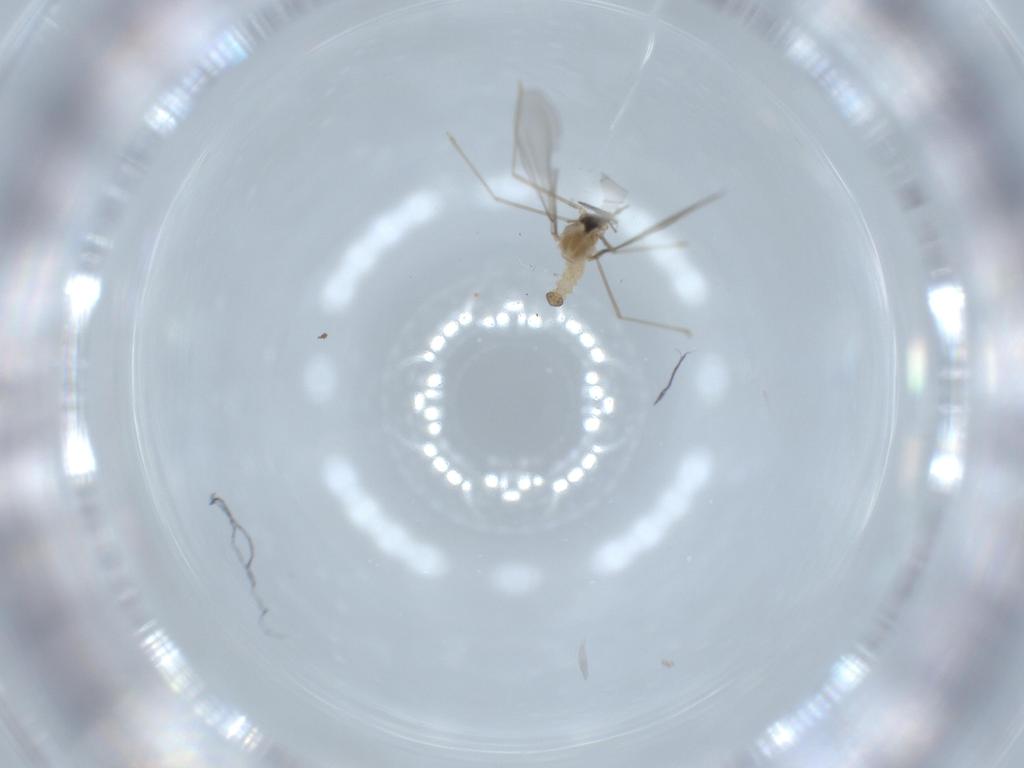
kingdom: Animalia
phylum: Arthropoda
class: Insecta
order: Diptera
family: Cecidomyiidae
